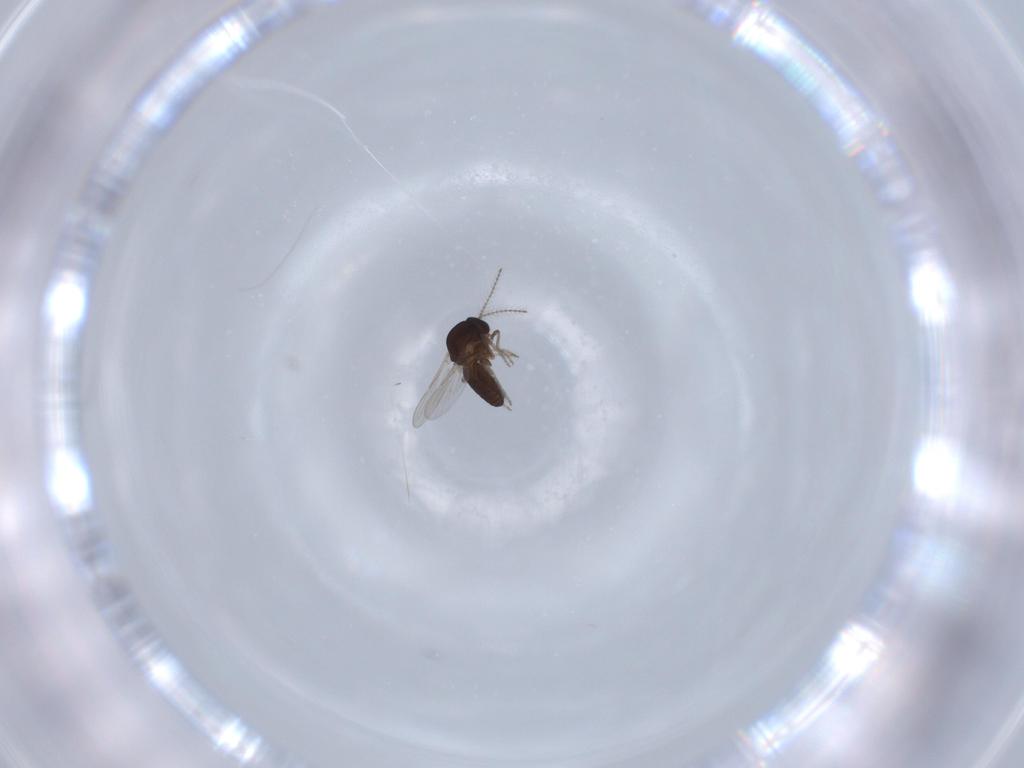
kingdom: Animalia
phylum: Arthropoda
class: Insecta
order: Diptera
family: Ceratopogonidae
